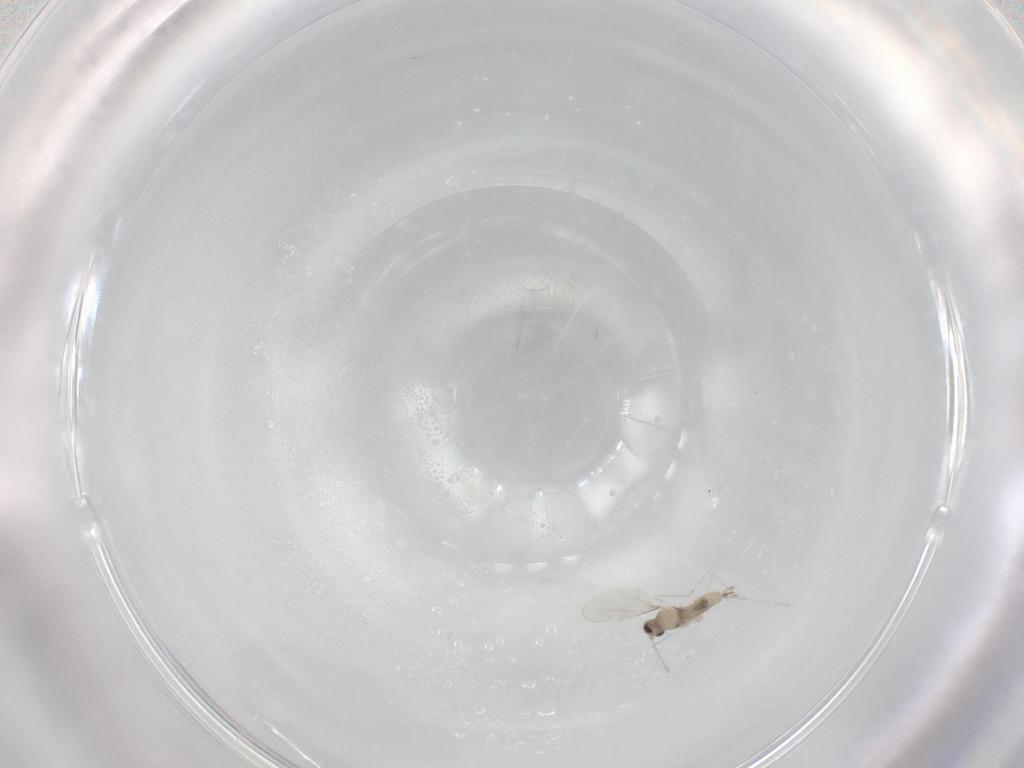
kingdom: Animalia
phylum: Arthropoda
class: Insecta
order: Diptera
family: Cecidomyiidae
